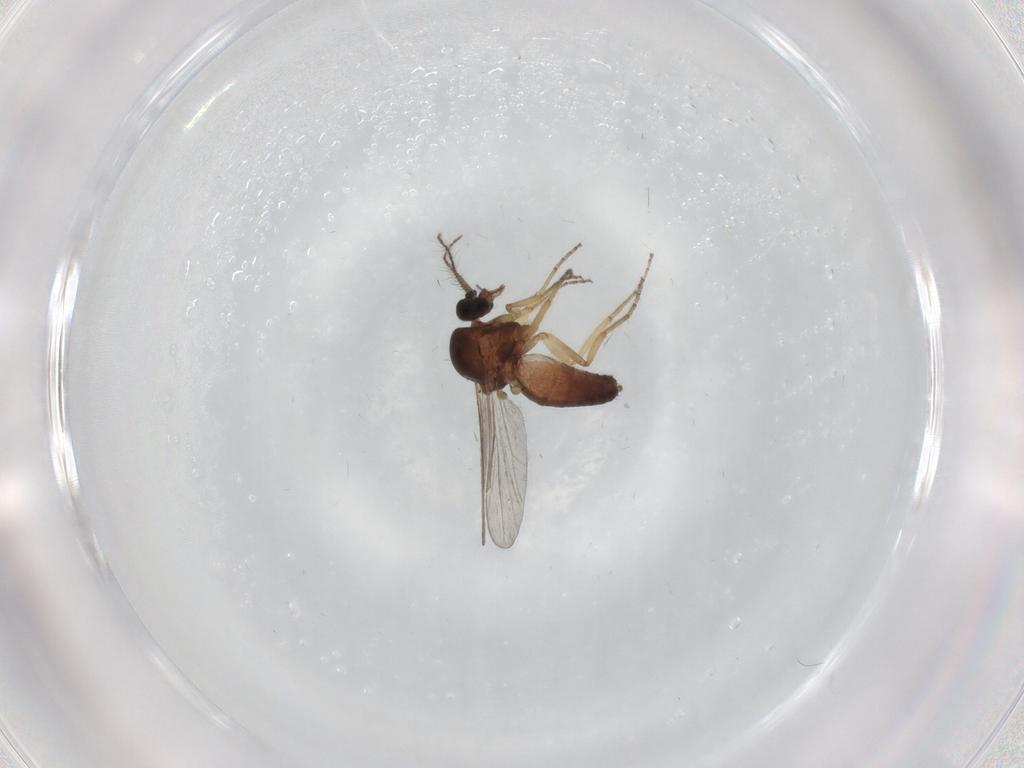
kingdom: Animalia
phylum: Arthropoda
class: Insecta
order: Diptera
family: Ceratopogonidae
